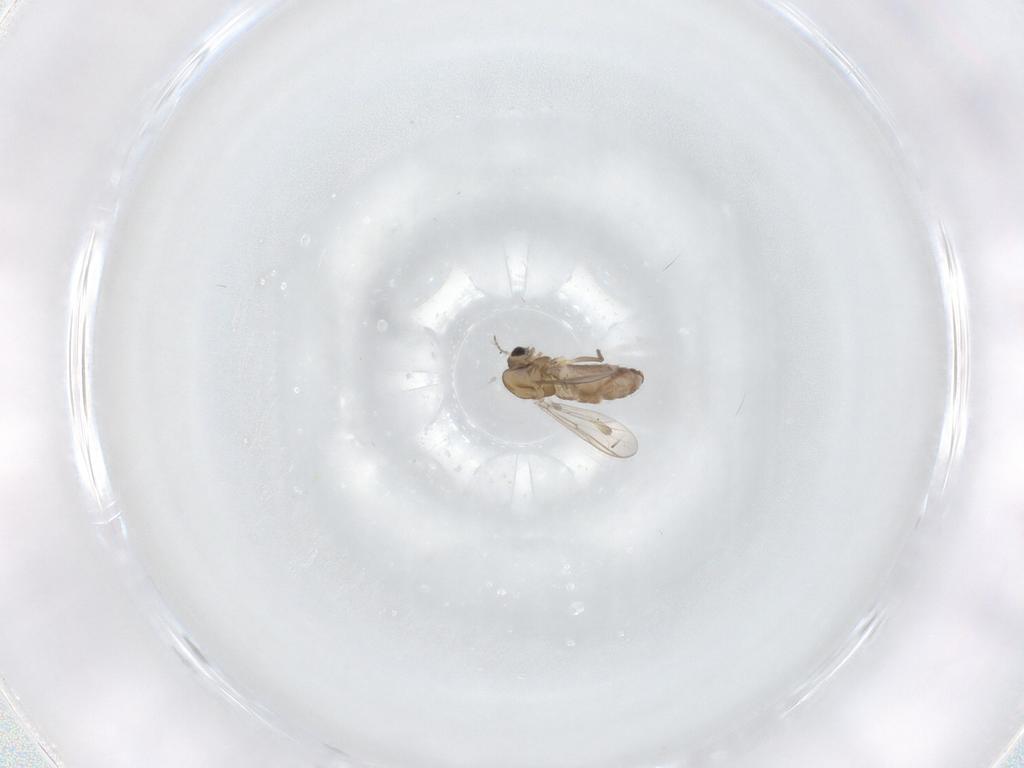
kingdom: Animalia
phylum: Arthropoda
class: Insecta
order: Diptera
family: Chironomidae
